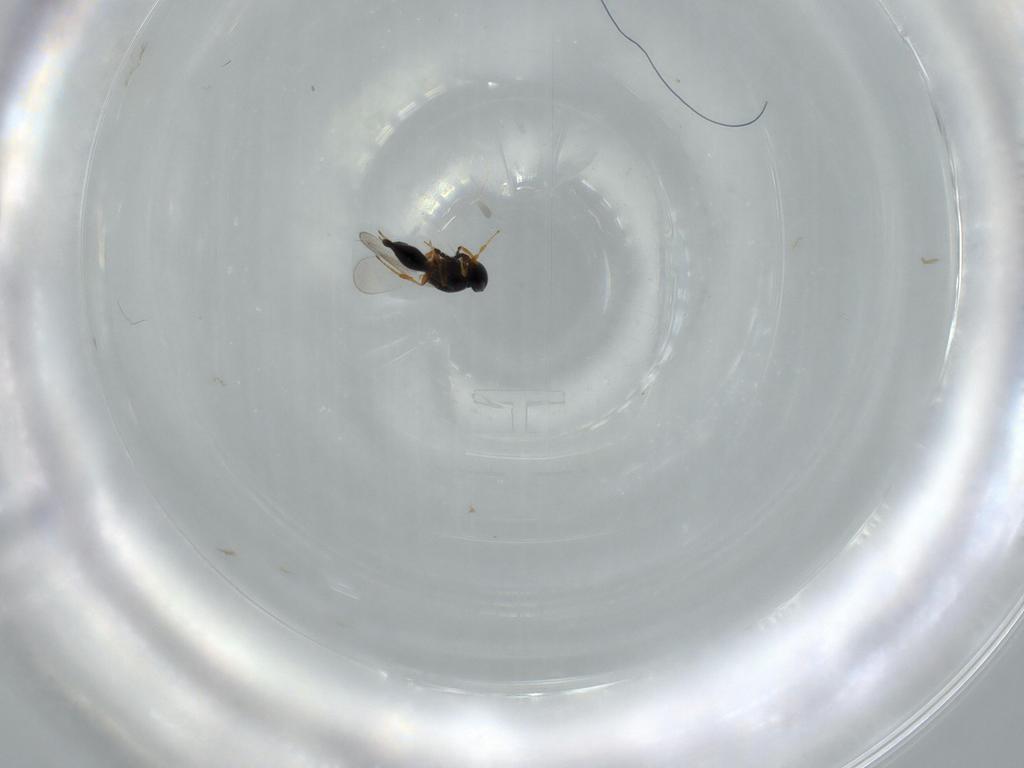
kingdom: Animalia
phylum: Arthropoda
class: Insecta
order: Hymenoptera
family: Platygastridae
